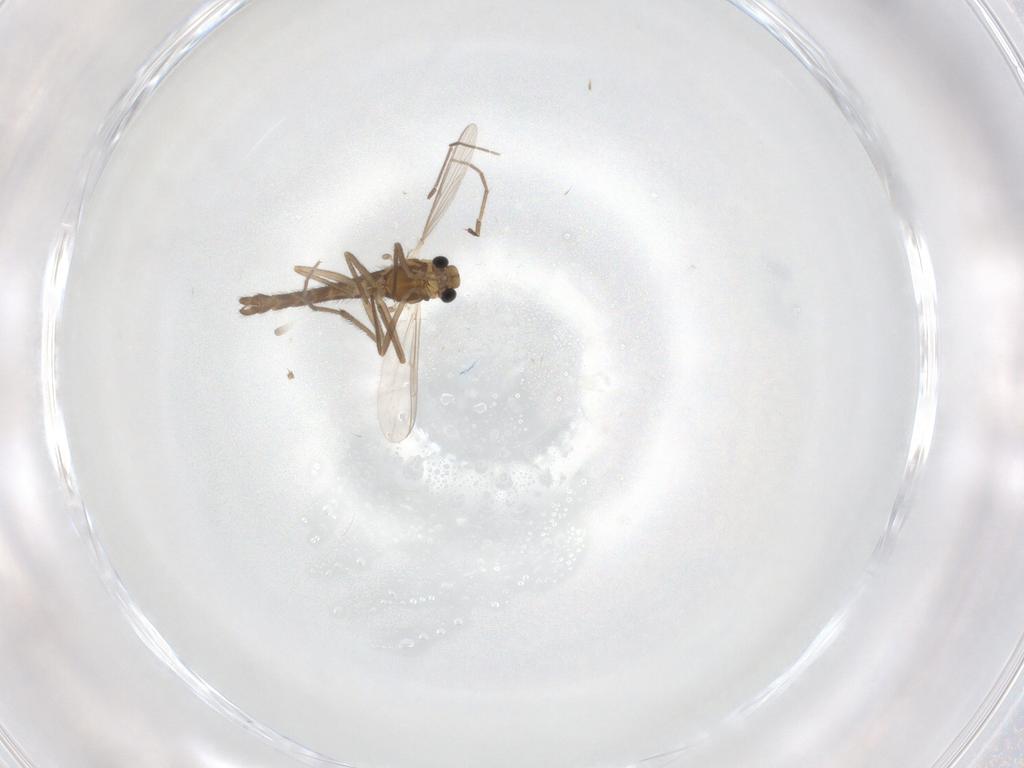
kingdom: Animalia
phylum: Arthropoda
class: Insecta
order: Diptera
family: Chironomidae
